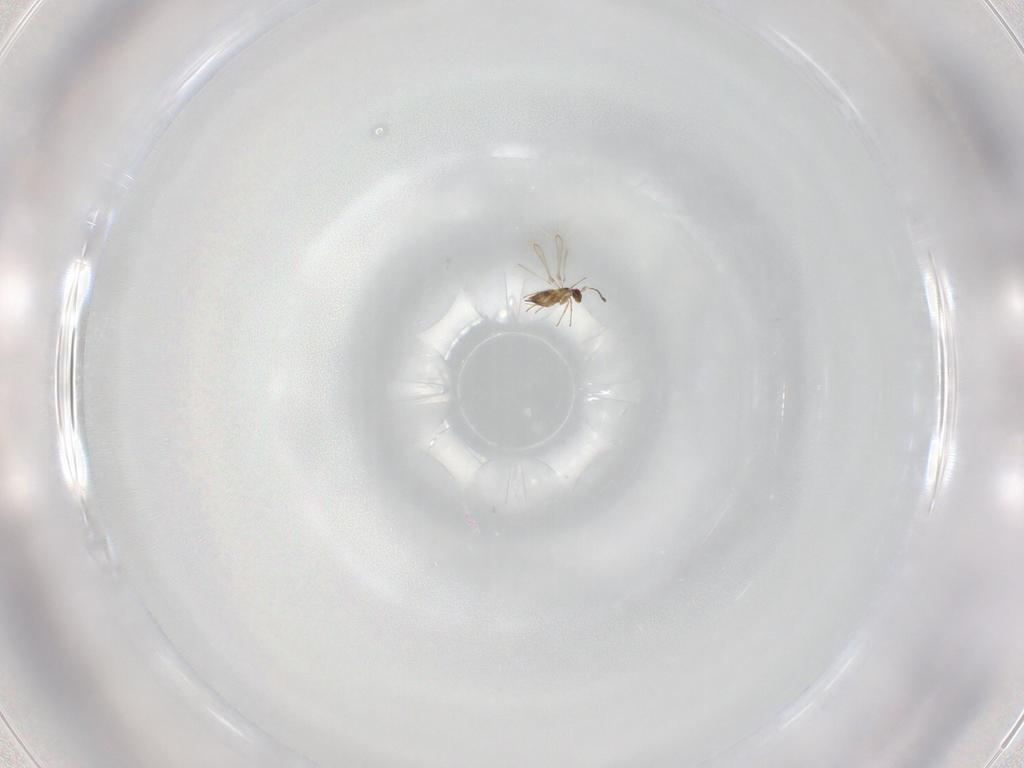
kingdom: Animalia
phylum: Arthropoda
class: Insecta
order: Hymenoptera
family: Mymaridae
